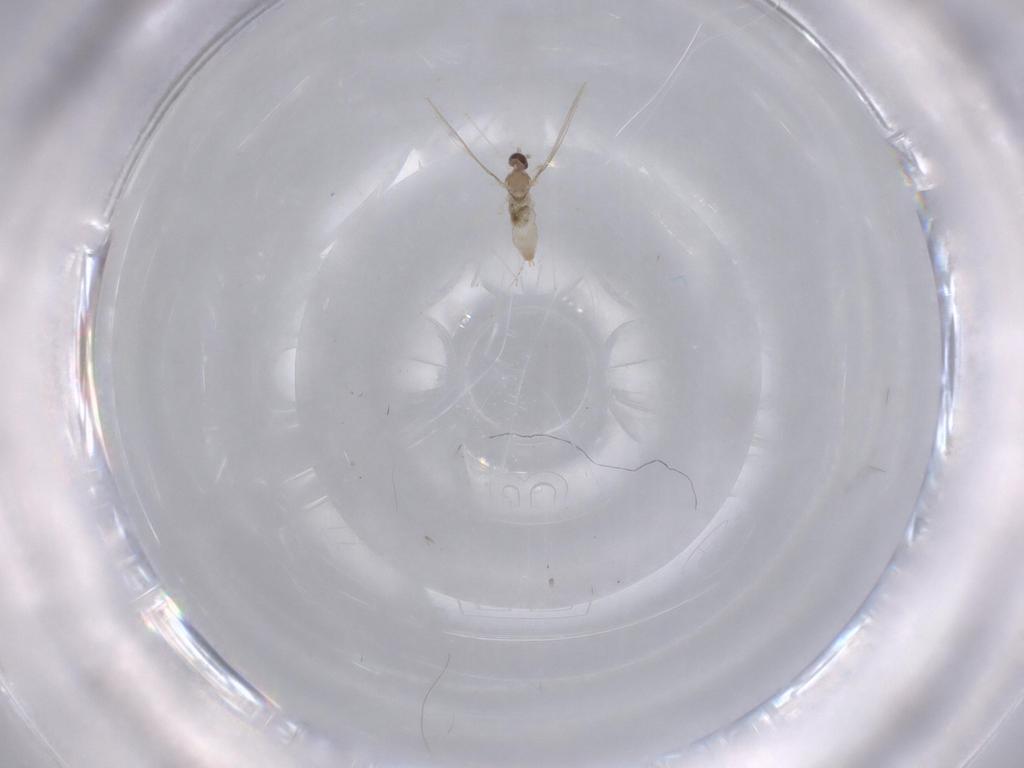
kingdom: Animalia
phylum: Arthropoda
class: Insecta
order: Diptera
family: Micropezidae
